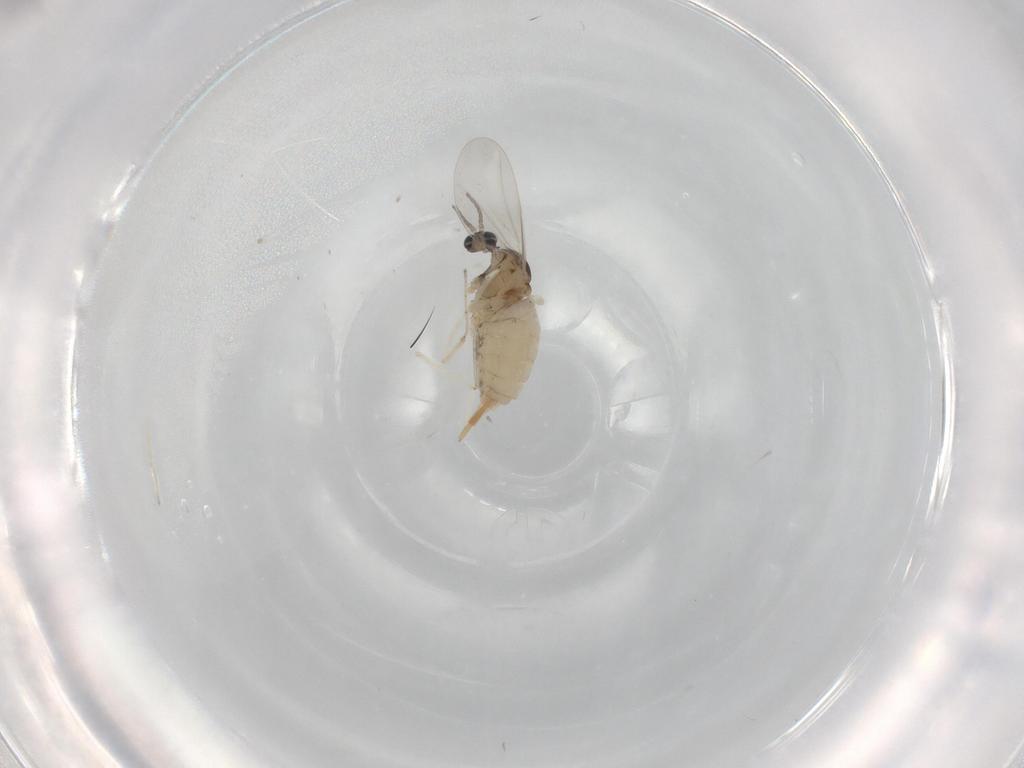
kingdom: Animalia
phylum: Arthropoda
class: Insecta
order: Diptera
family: Cecidomyiidae
